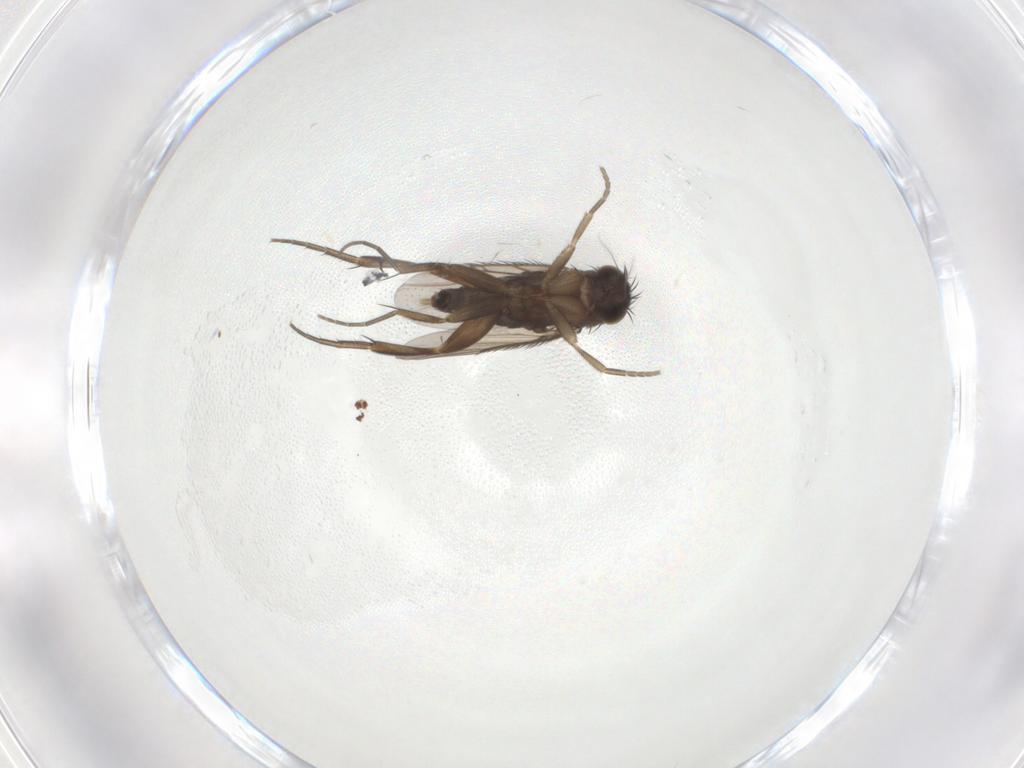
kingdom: Animalia
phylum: Arthropoda
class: Insecta
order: Diptera
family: Phoridae
